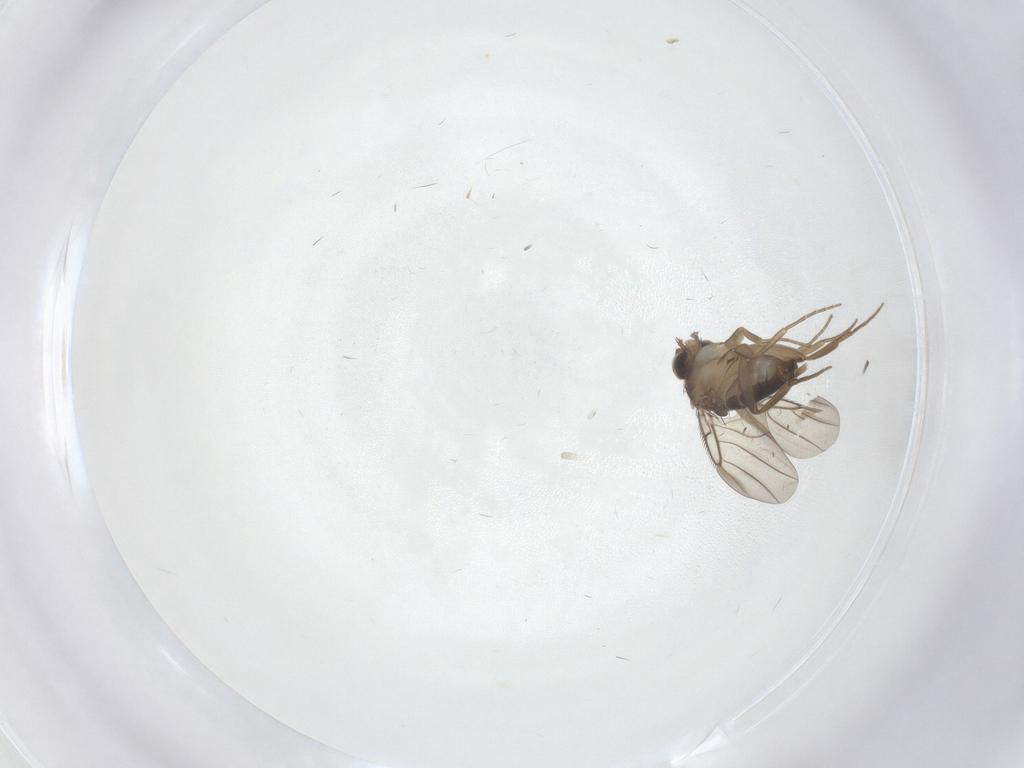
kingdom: Animalia
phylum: Arthropoda
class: Insecta
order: Diptera
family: Cecidomyiidae
